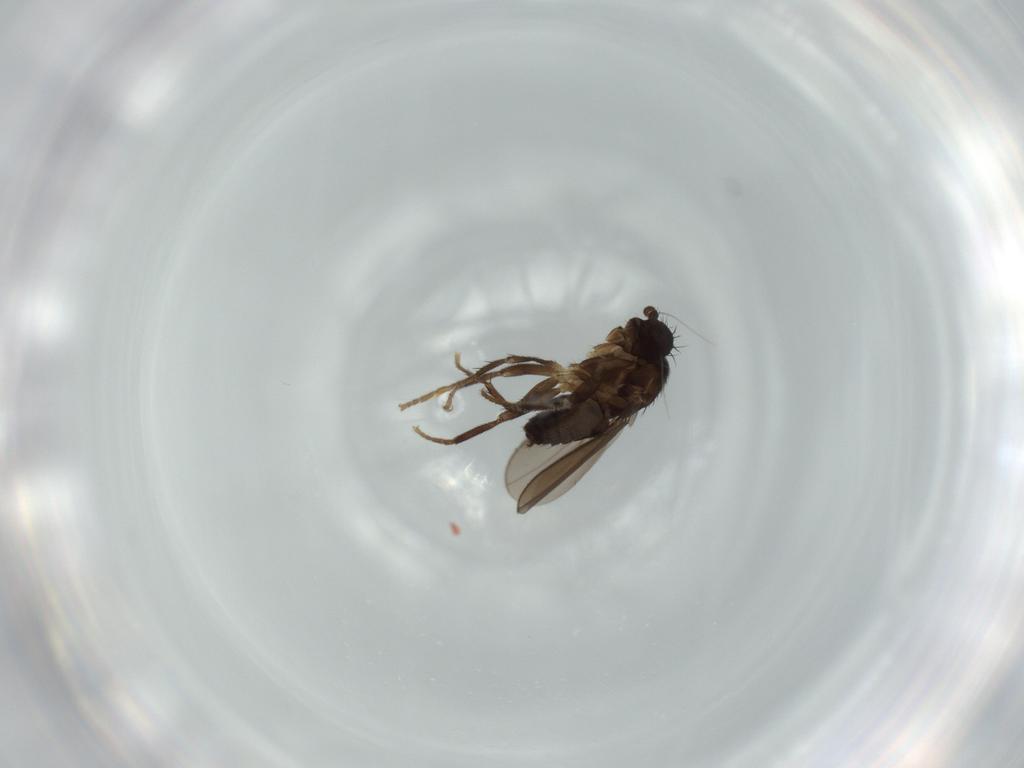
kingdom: Animalia
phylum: Arthropoda
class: Insecta
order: Diptera
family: Sphaeroceridae
